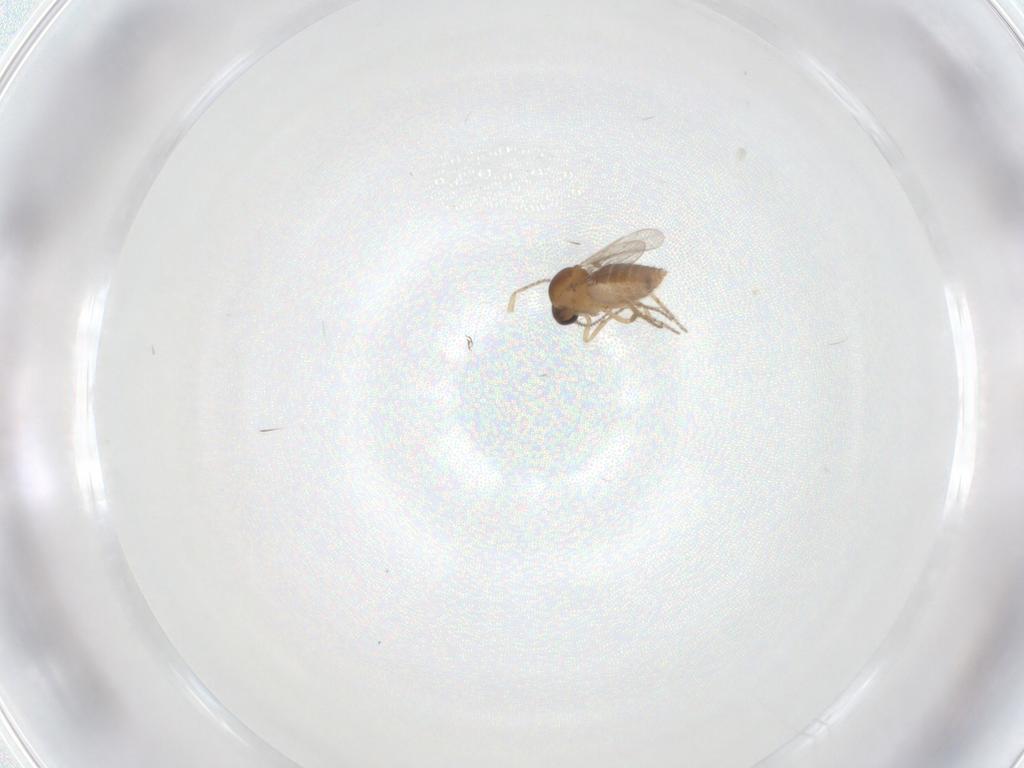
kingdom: Animalia
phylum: Arthropoda
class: Insecta
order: Diptera
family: Ceratopogonidae
